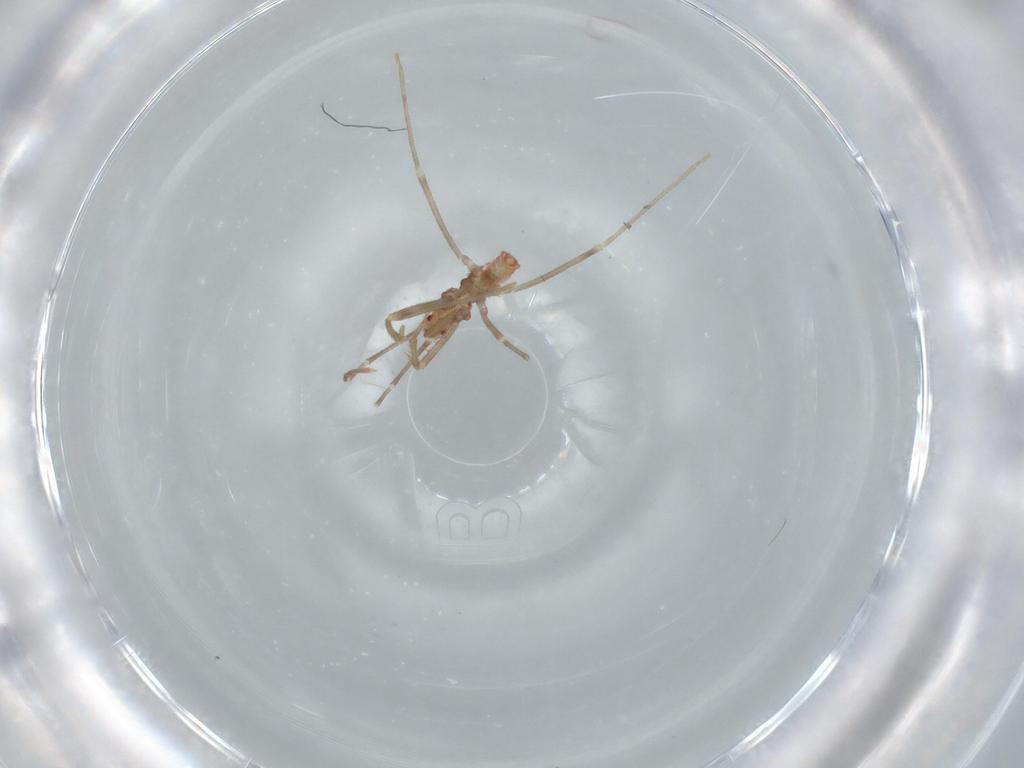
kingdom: Animalia
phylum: Arthropoda
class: Insecta
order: Hemiptera
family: Reduviidae
